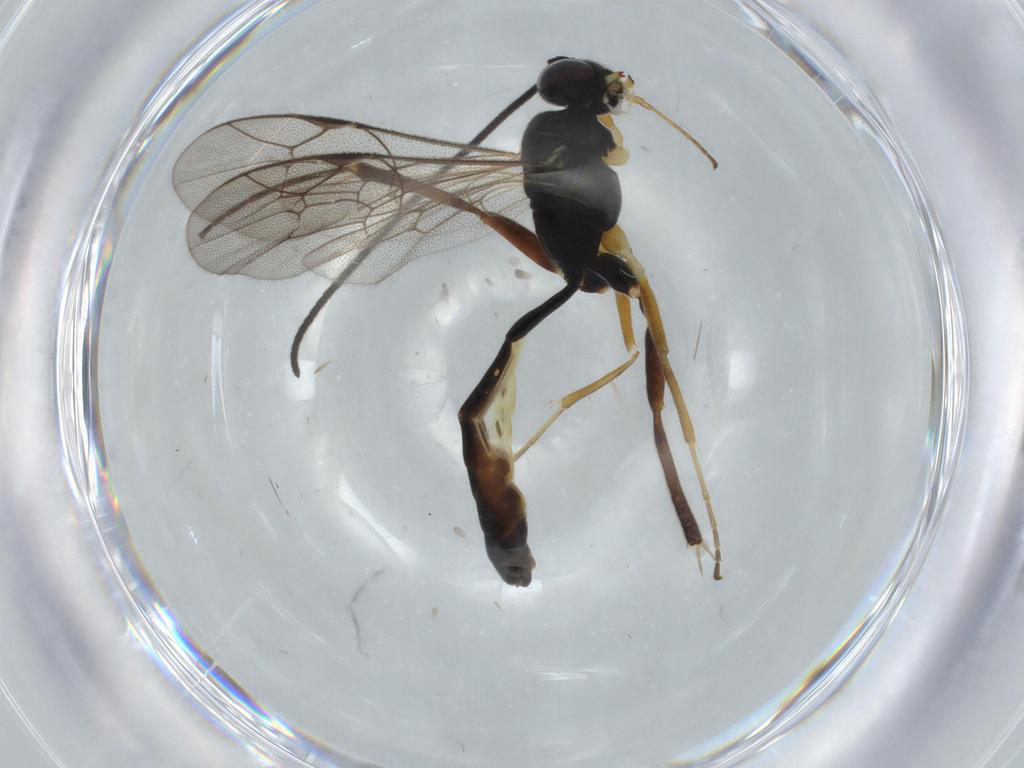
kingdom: Animalia
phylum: Arthropoda
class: Insecta
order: Hymenoptera
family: Ichneumonidae
